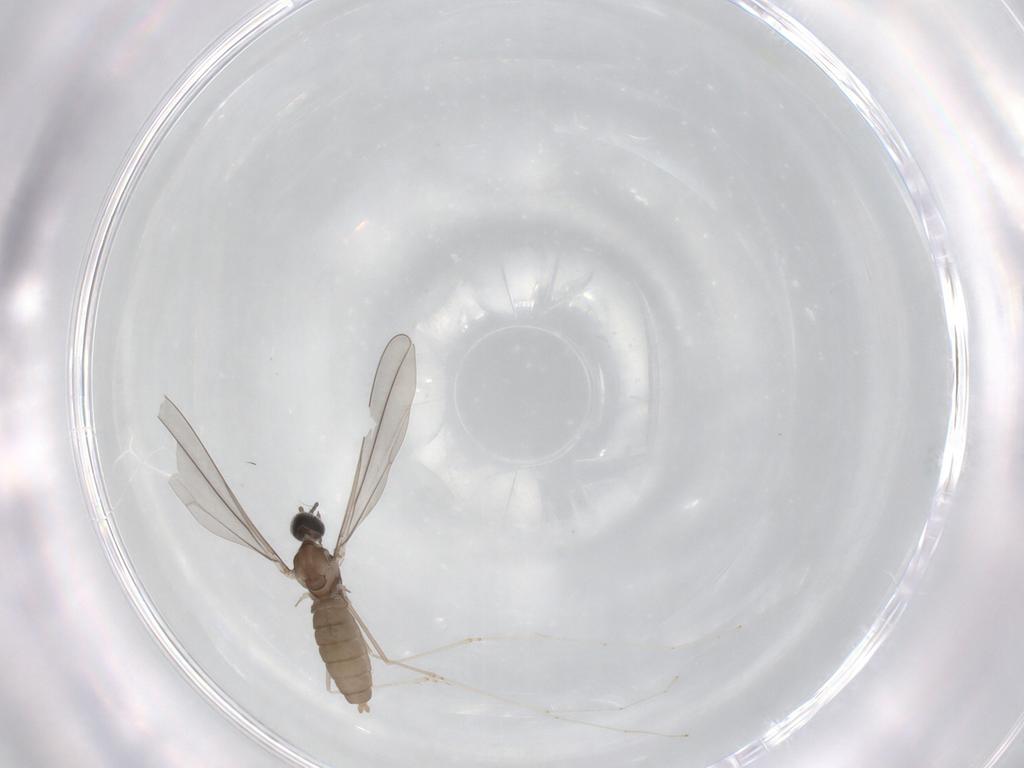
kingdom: Animalia
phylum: Arthropoda
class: Insecta
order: Diptera
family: Cecidomyiidae
